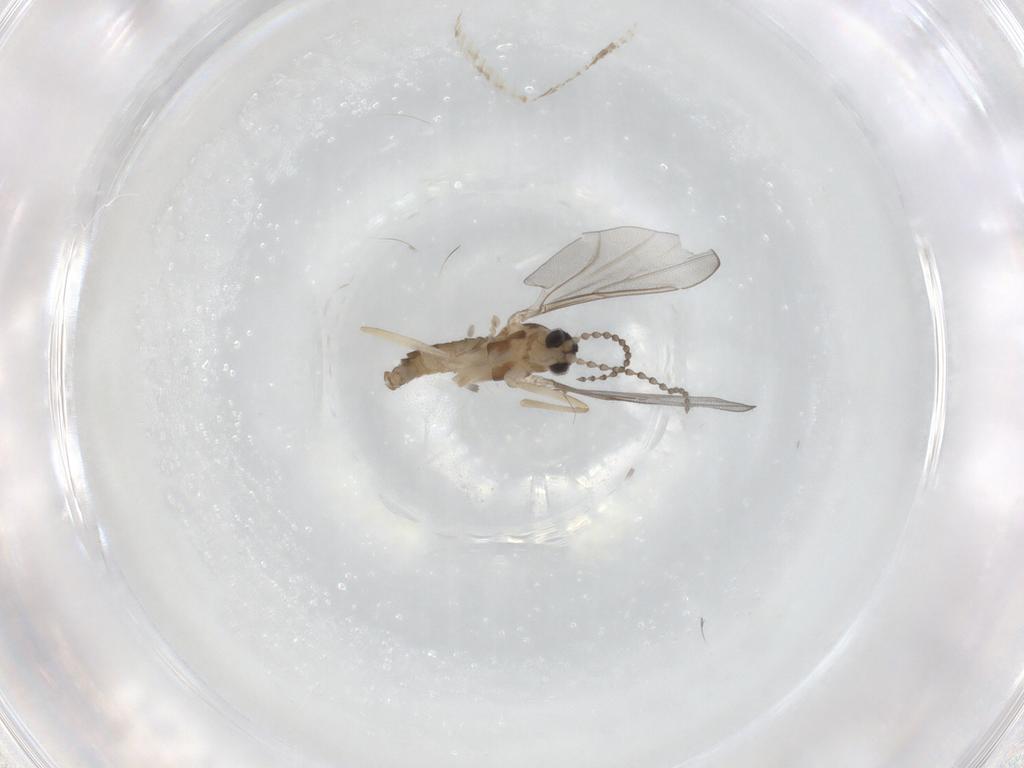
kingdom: Animalia
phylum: Arthropoda
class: Insecta
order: Diptera
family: Cecidomyiidae
